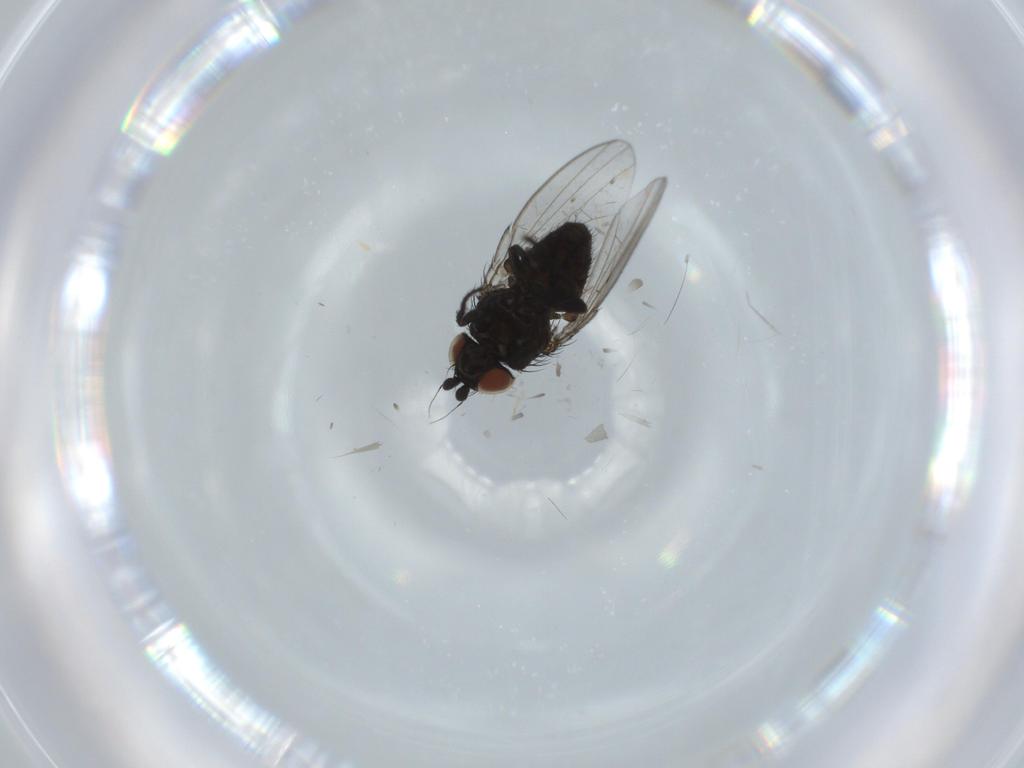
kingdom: Animalia
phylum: Arthropoda
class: Insecta
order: Diptera
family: Milichiidae
